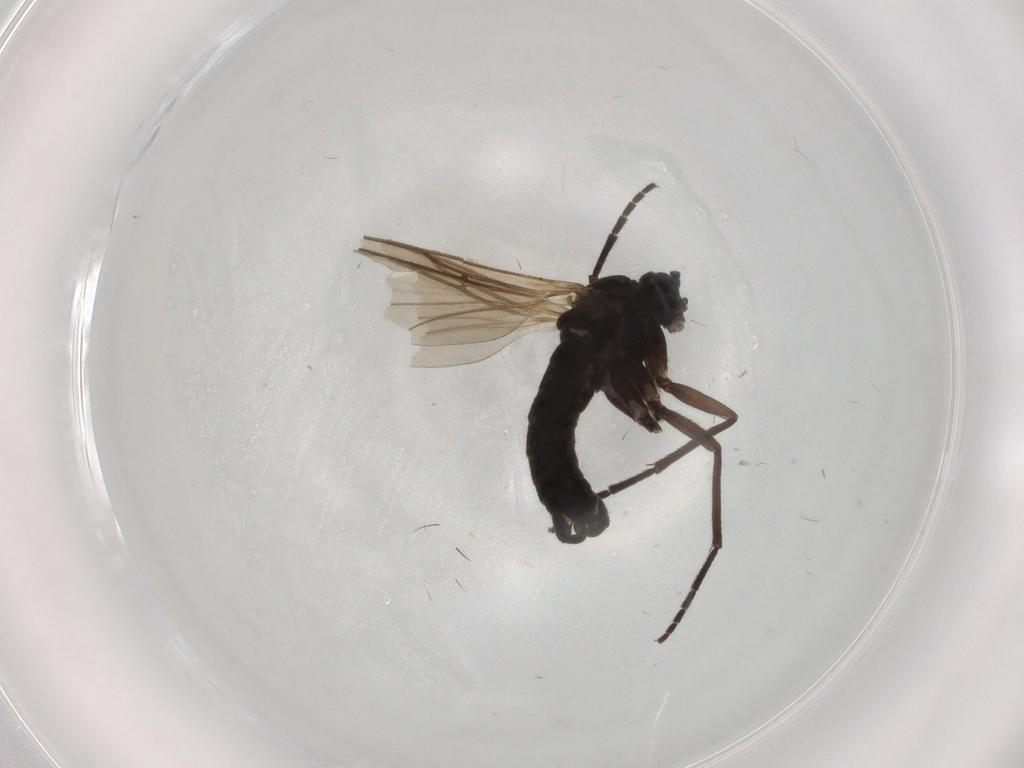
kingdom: Animalia
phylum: Arthropoda
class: Insecta
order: Diptera
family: Sciaridae
